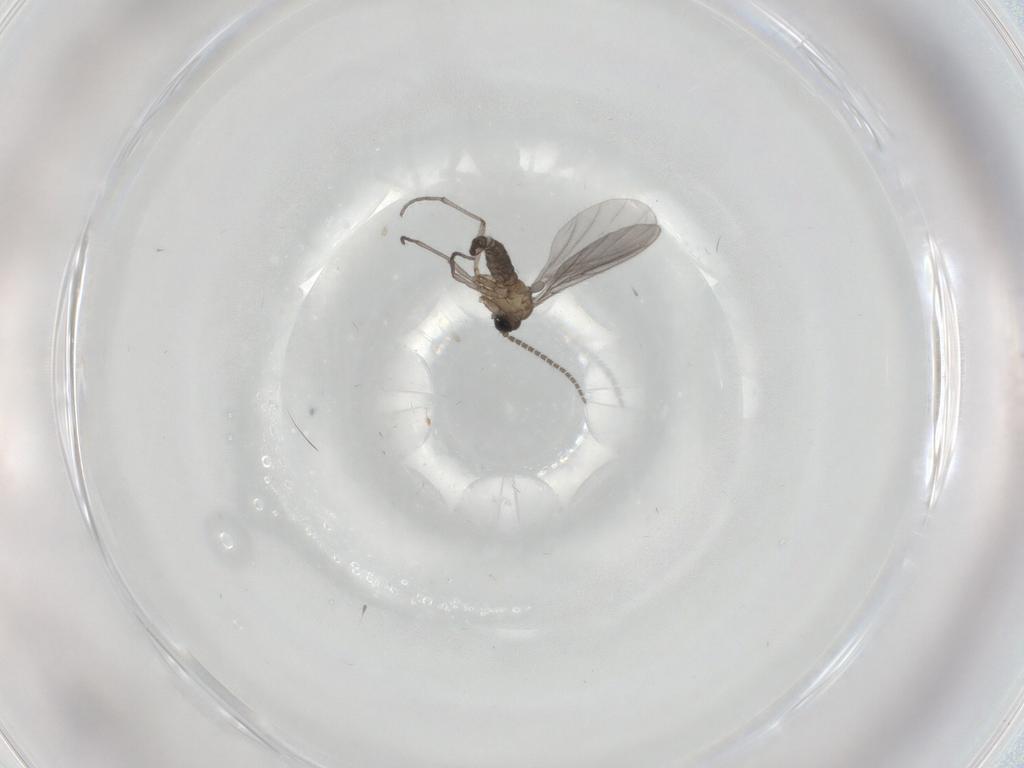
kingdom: Animalia
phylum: Arthropoda
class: Insecta
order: Diptera
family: Sciaridae
